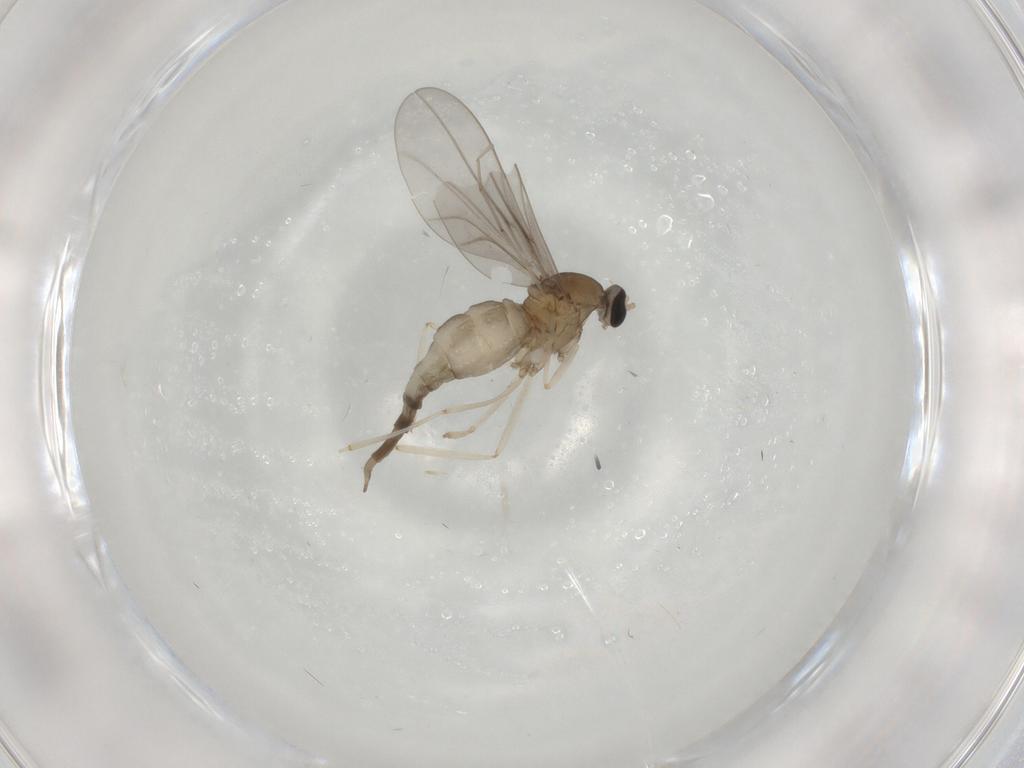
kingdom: Animalia
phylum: Arthropoda
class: Insecta
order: Diptera
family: Cecidomyiidae
